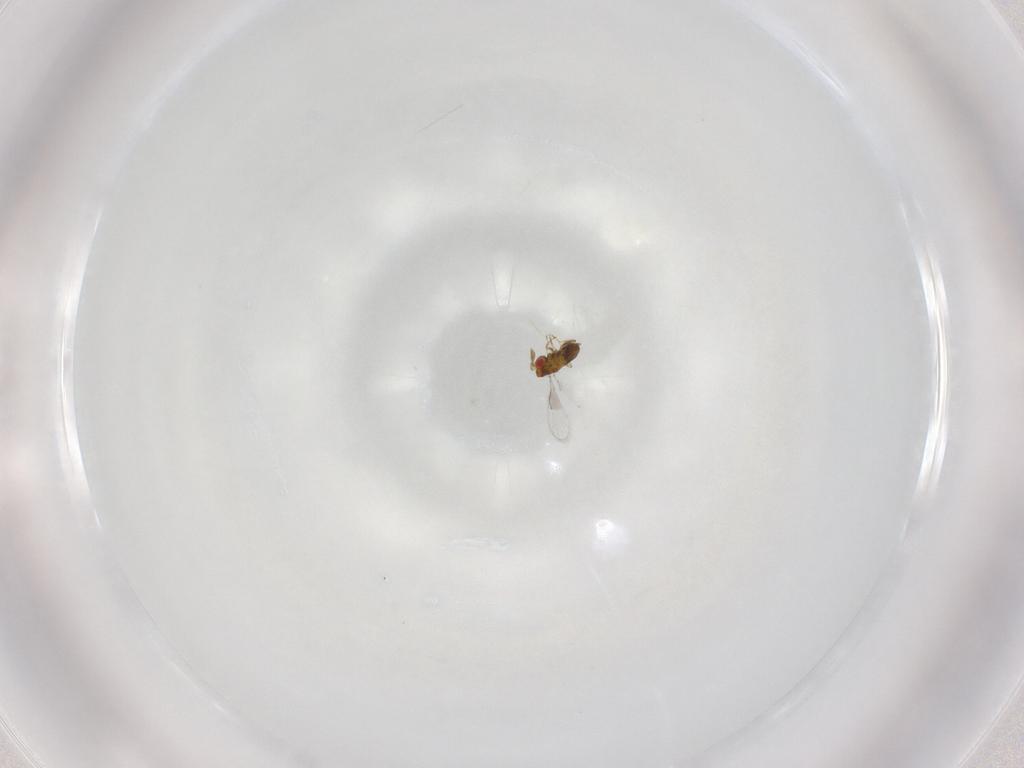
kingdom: Animalia
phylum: Arthropoda
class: Insecta
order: Hymenoptera
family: Trichogrammatidae
